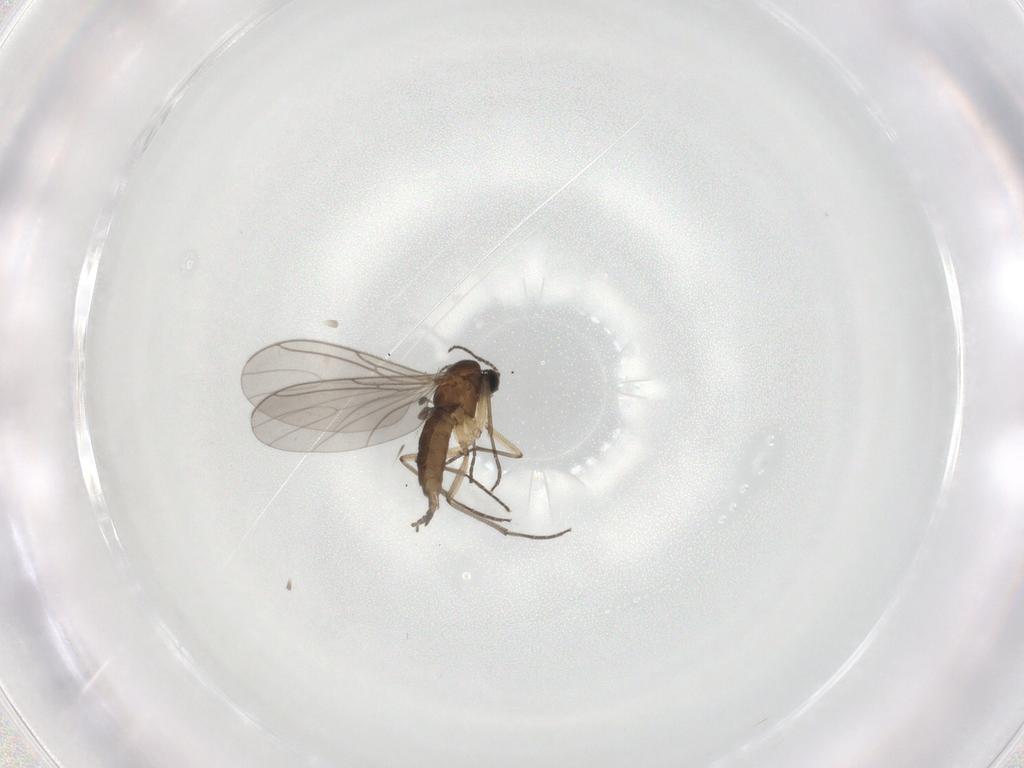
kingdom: Animalia
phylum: Arthropoda
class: Insecta
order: Diptera
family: Sciaridae
